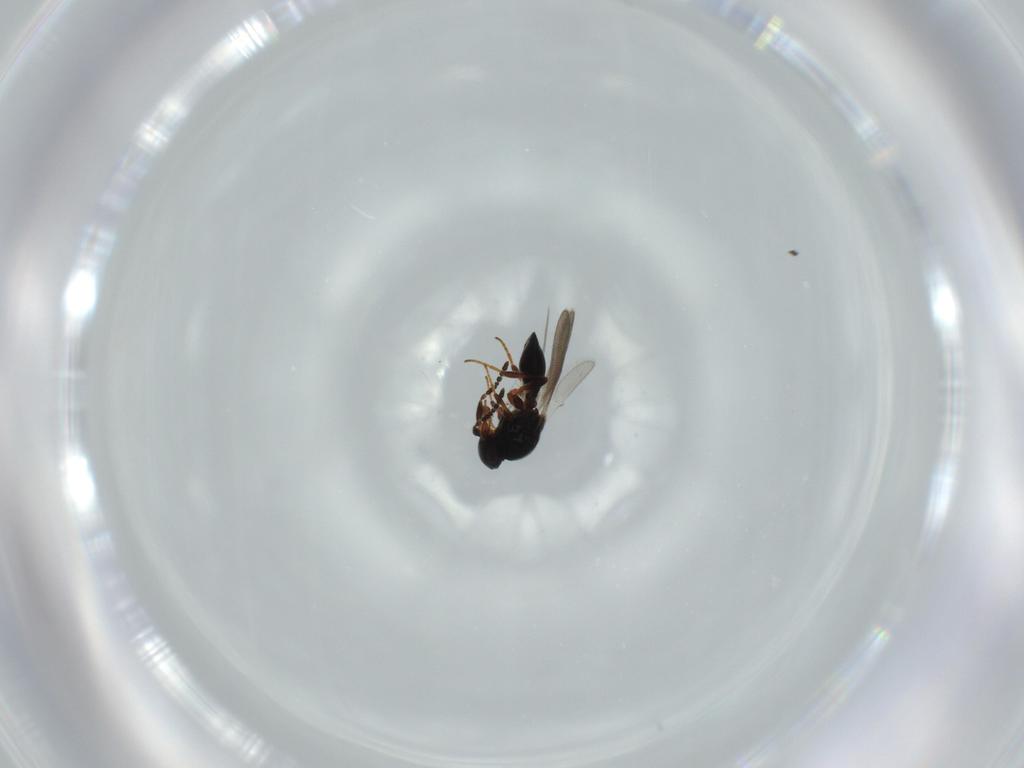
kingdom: Animalia
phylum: Arthropoda
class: Insecta
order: Hymenoptera
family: Platygastridae
